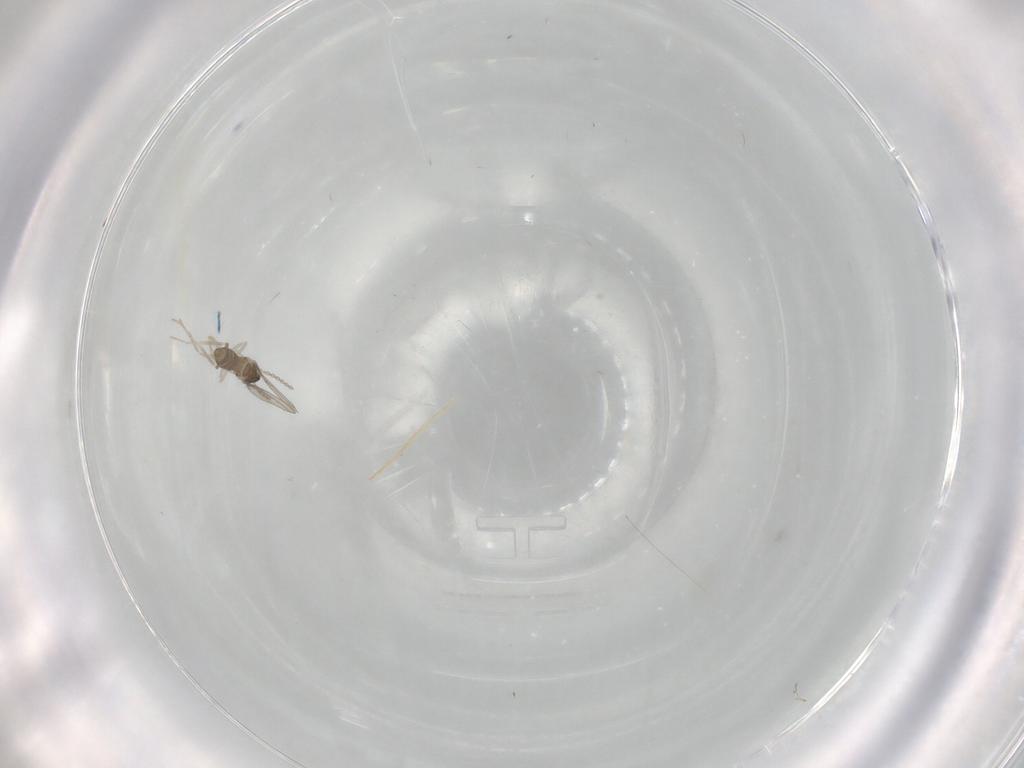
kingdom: Animalia
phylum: Arthropoda
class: Insecta
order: Diptera
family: Cecidomyiidae
